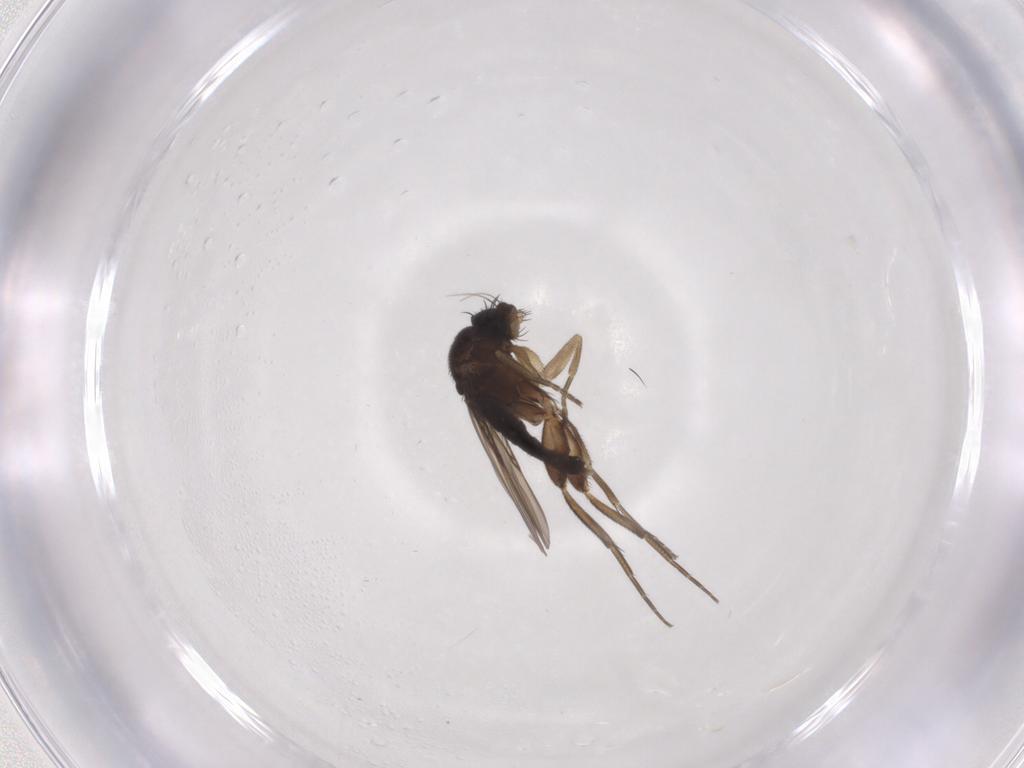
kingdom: Animalia
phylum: Arthropoda
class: Insecta
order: Diptera
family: Phoridae
